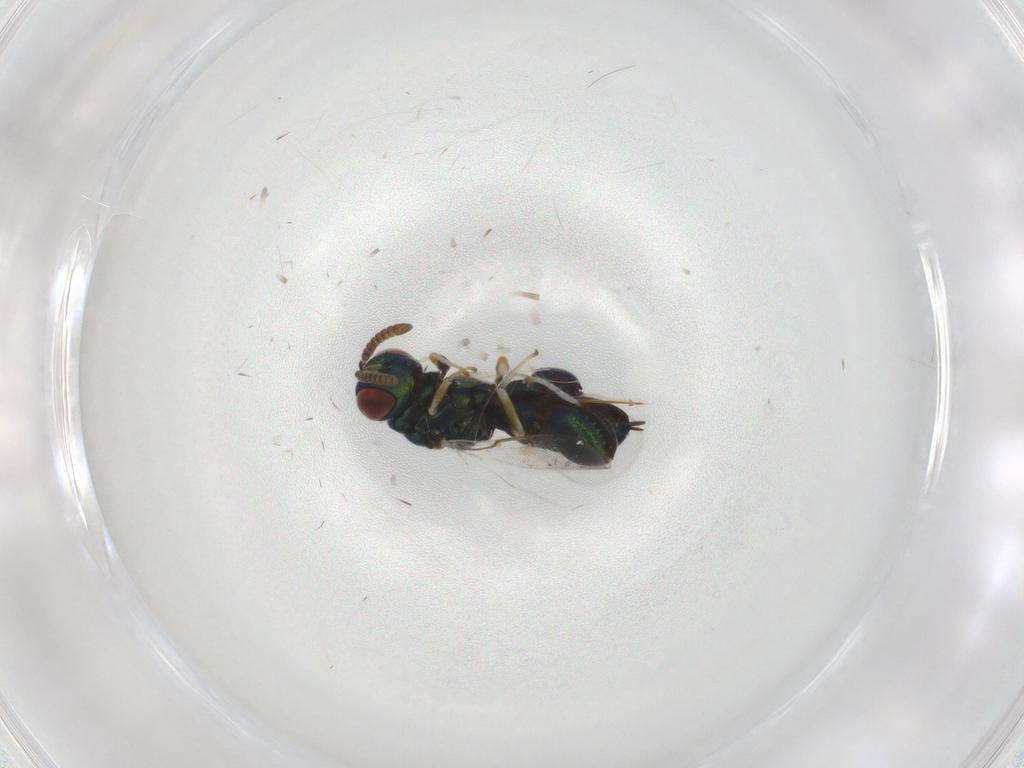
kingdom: Animalia
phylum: Arthropoda
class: Insecta
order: Hymenoptera
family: Torymidae
